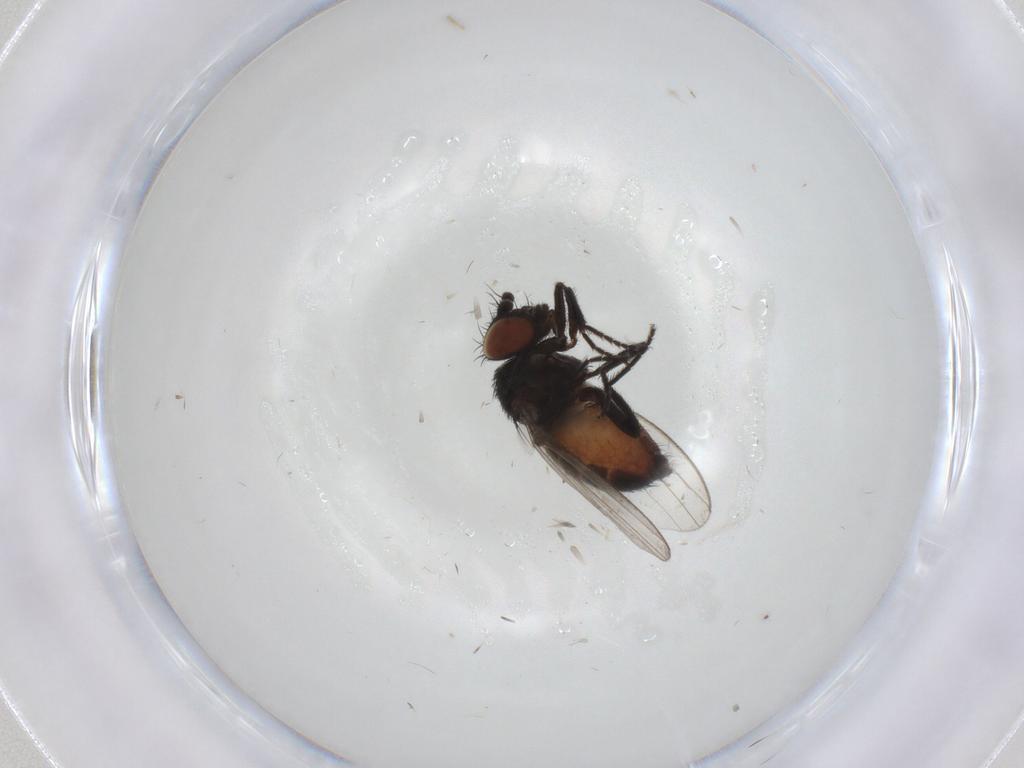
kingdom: Animalia
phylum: Arthropoda
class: Insecta
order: Diptera
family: Milichiidae
